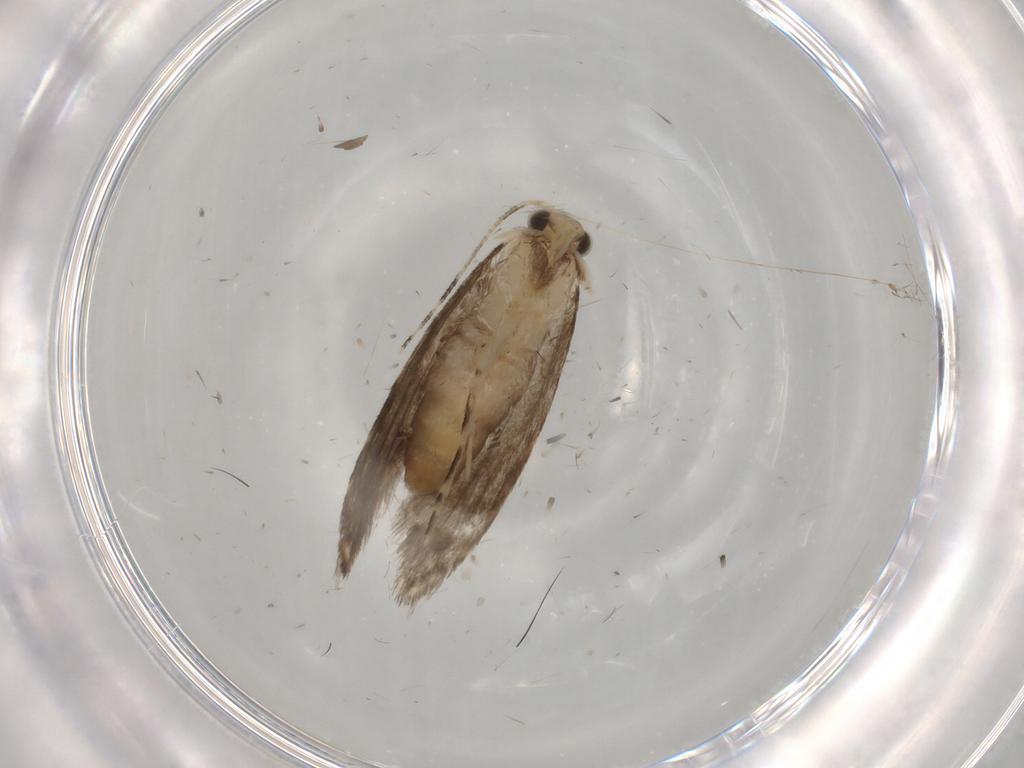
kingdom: Animalia
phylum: Arthropoda
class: Insecta
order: Lepidoptera
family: Tineidae
